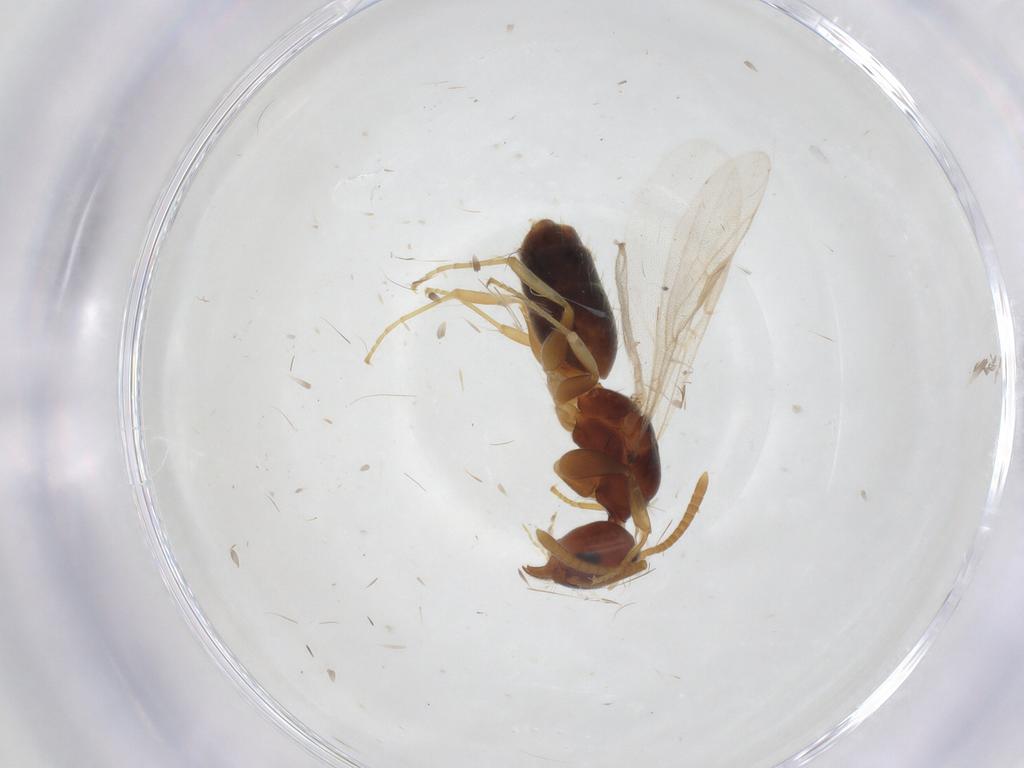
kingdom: Animalia
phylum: Arthropoda
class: Insecta
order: Hymenoptera
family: Formicidae
